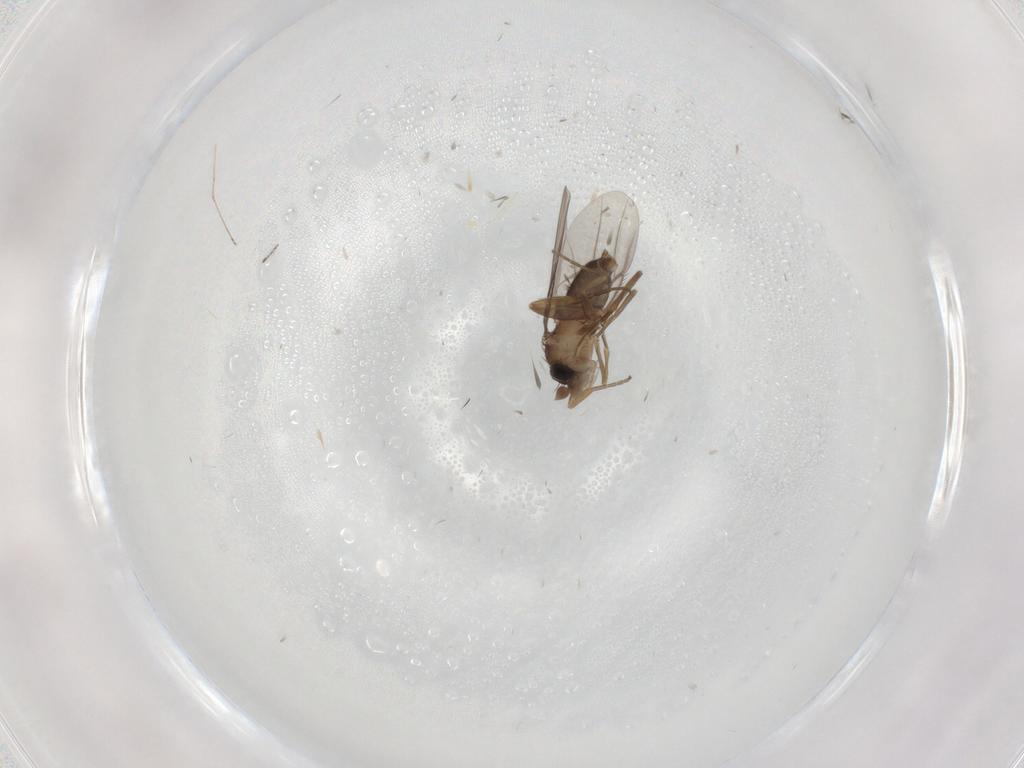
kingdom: Animalia
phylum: Arthropoda
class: Insecta
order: Diptera
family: Phoridae
